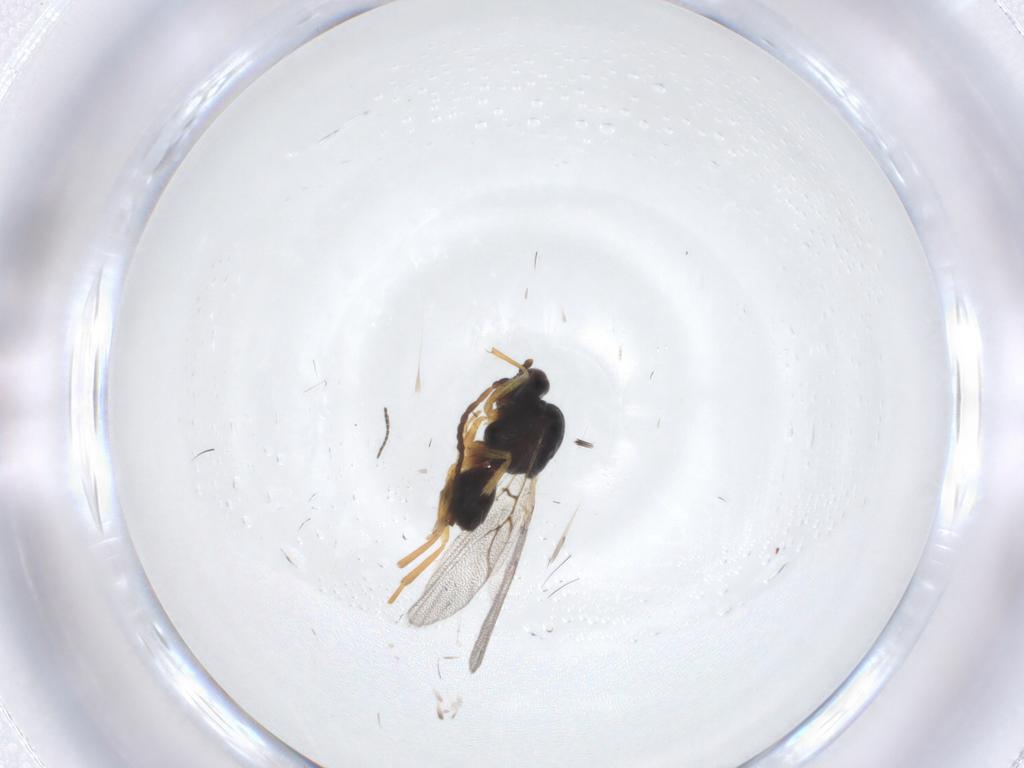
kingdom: Animalia
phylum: Arthropoda
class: Insecta
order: Hymenoptera
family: Cynipidae
